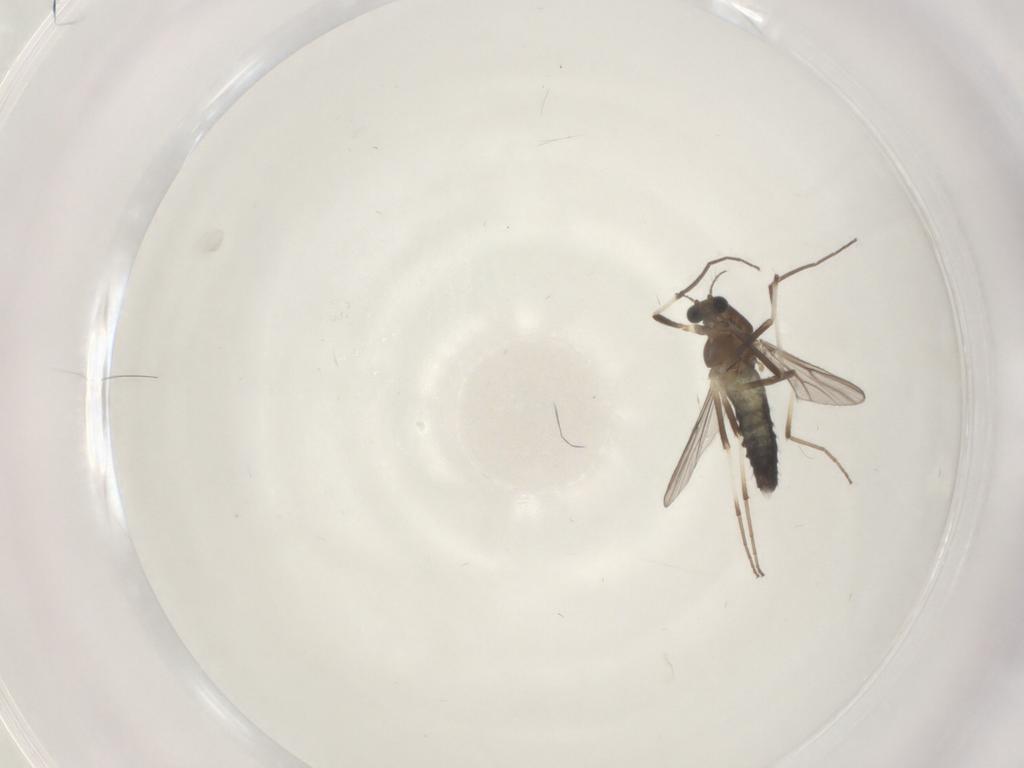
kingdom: Animalia
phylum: Arthropoda
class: Insecta
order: Diptera
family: Chironomidae
